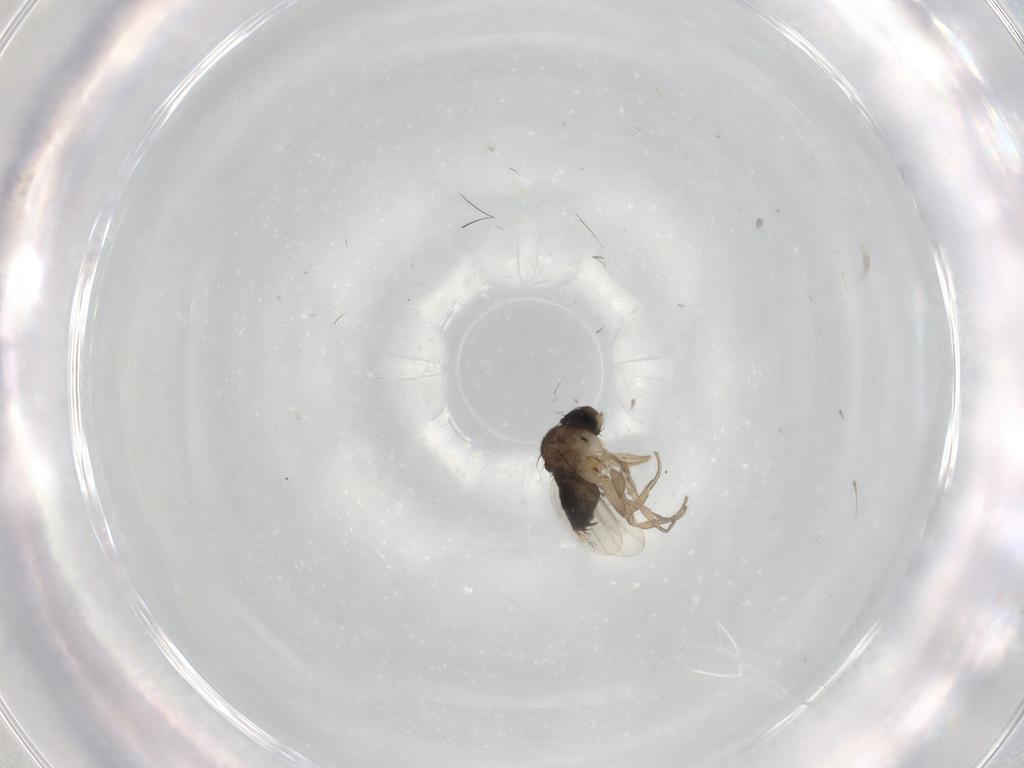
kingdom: Animalia
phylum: Arthropoda
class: Insecta
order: Diptera
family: Phoridae
